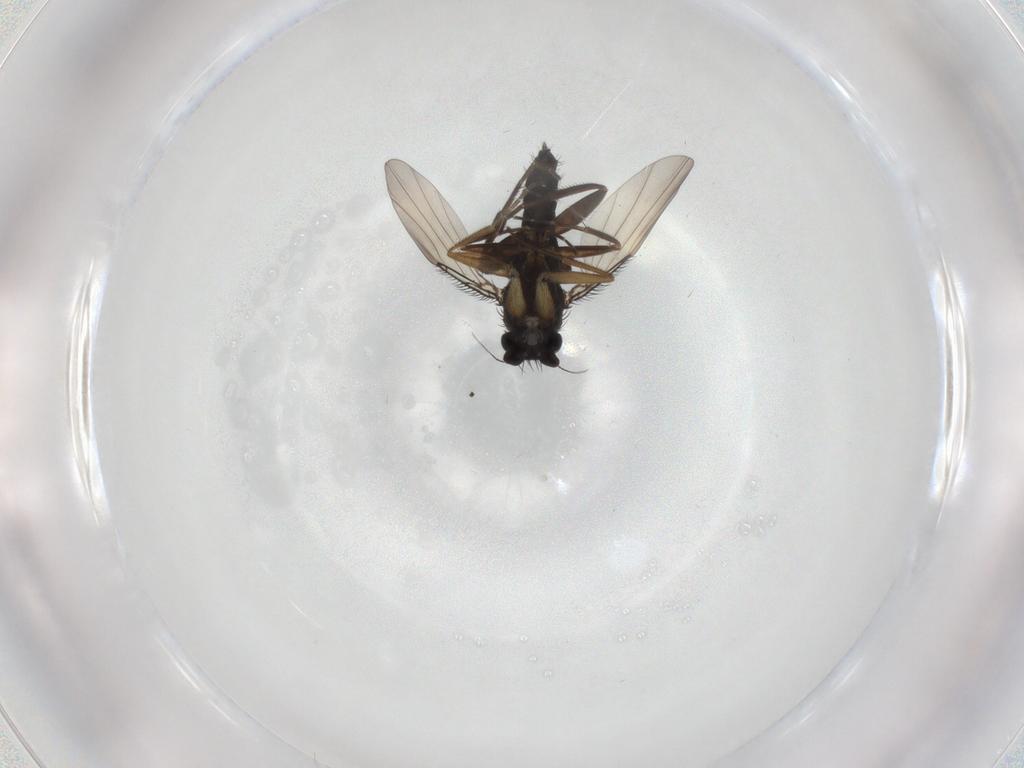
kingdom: Animalia
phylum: Arthropoda
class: Insecta
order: Diptera
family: Phoridae
